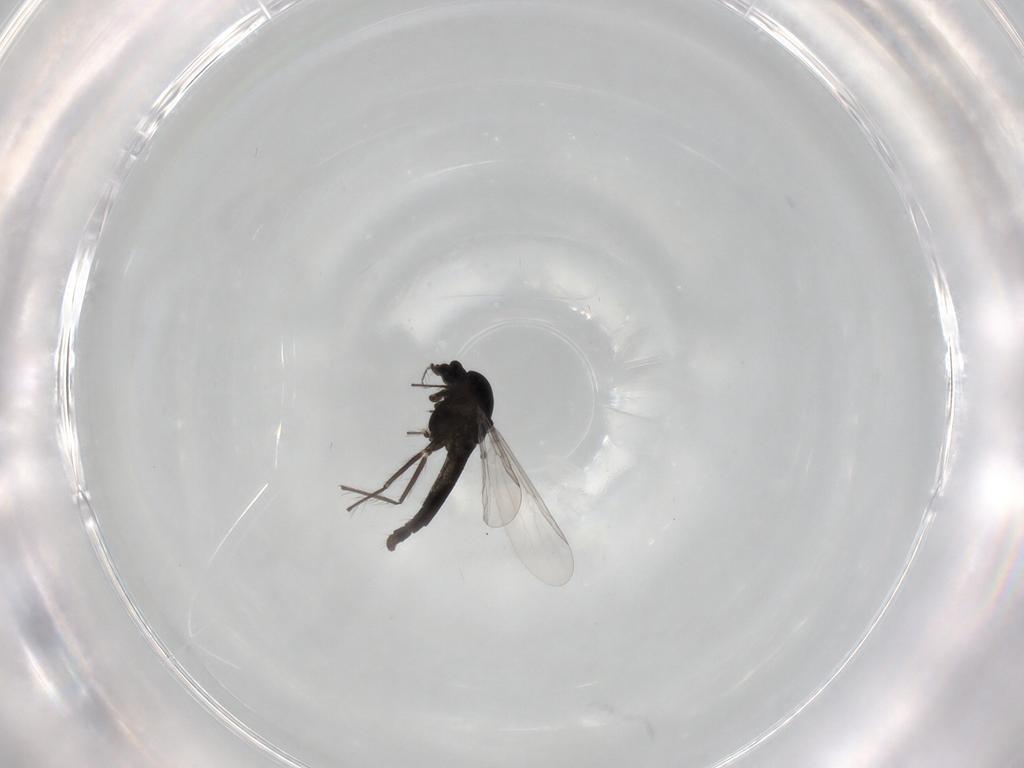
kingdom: Animalia
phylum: Arthropoda
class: Insecta
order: Diptera
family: Chironomidae
